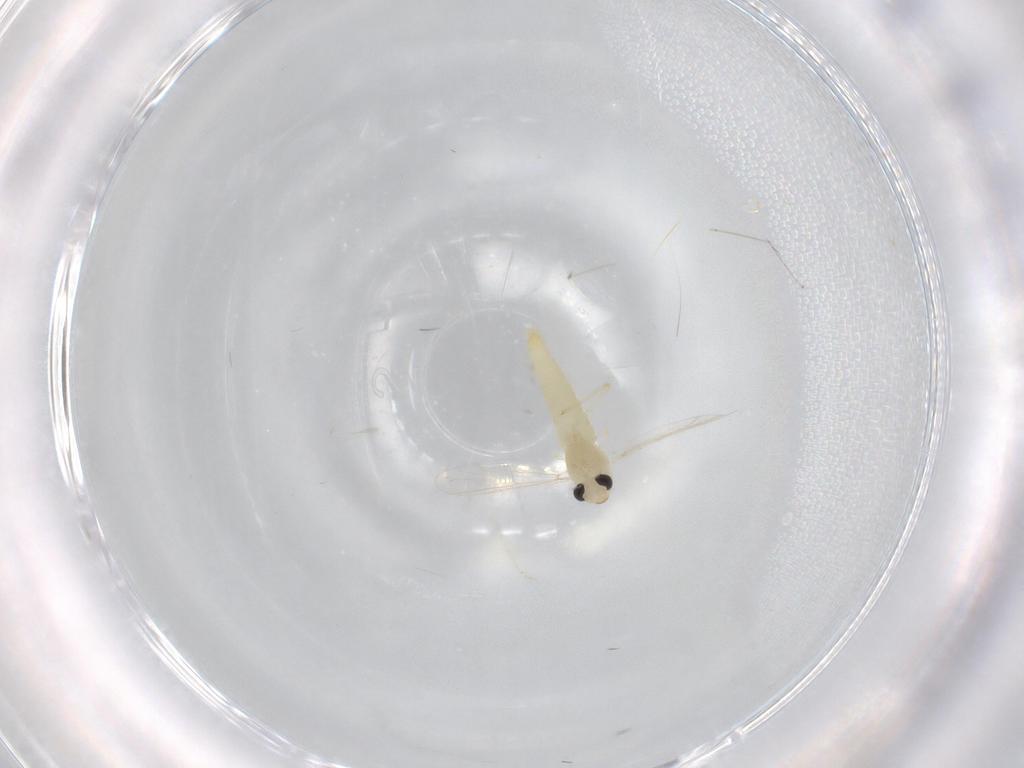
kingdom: Animalia
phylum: Arthropoda
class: Insecta
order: Diptera
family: Chironomidae
